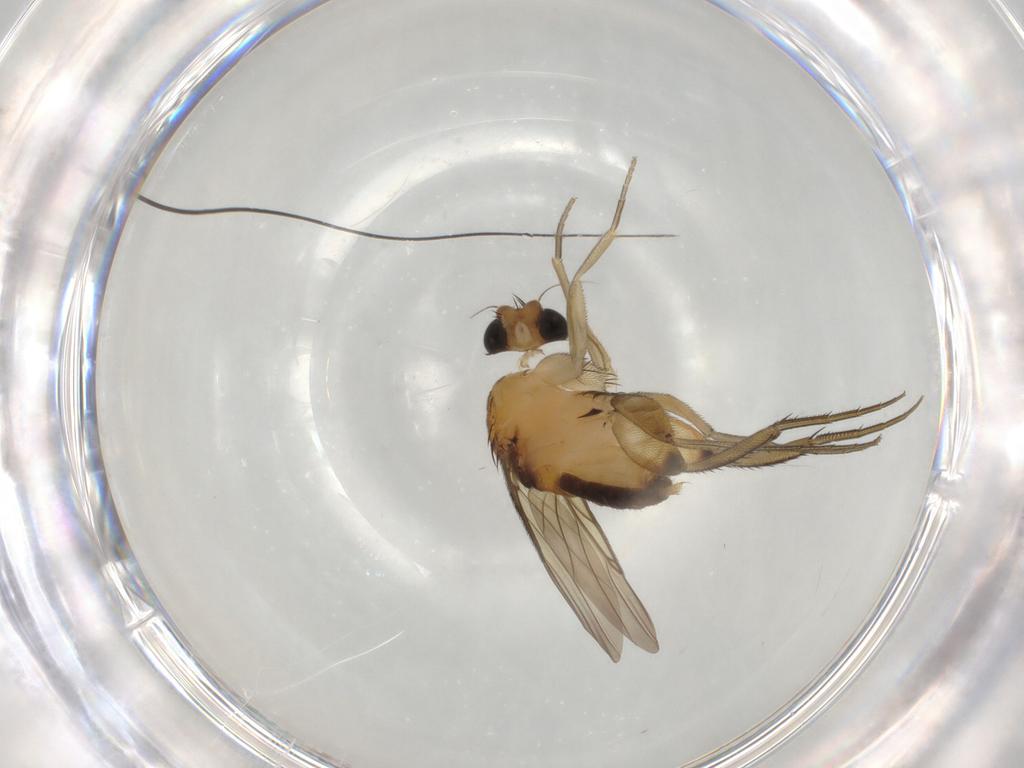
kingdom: Animalia
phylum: Arthropoda
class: Insecta
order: Diptera
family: Phoridae
